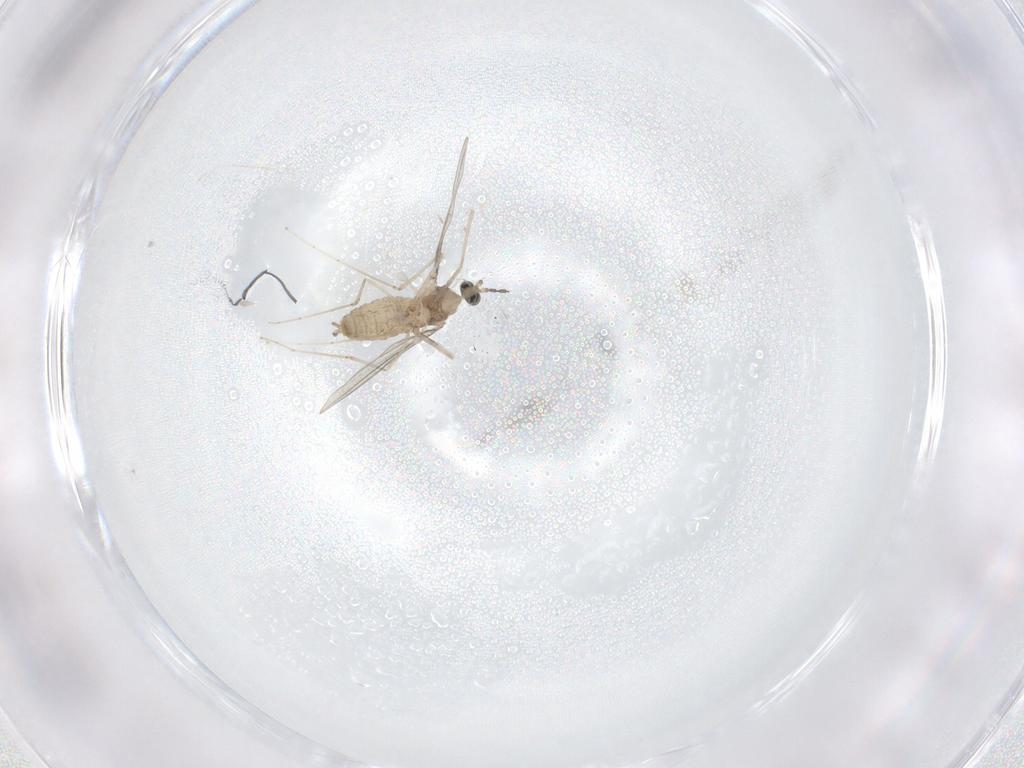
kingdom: Animalia
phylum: Arthropoda
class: Insecta
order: Diptera
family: Cecidomyiidae
